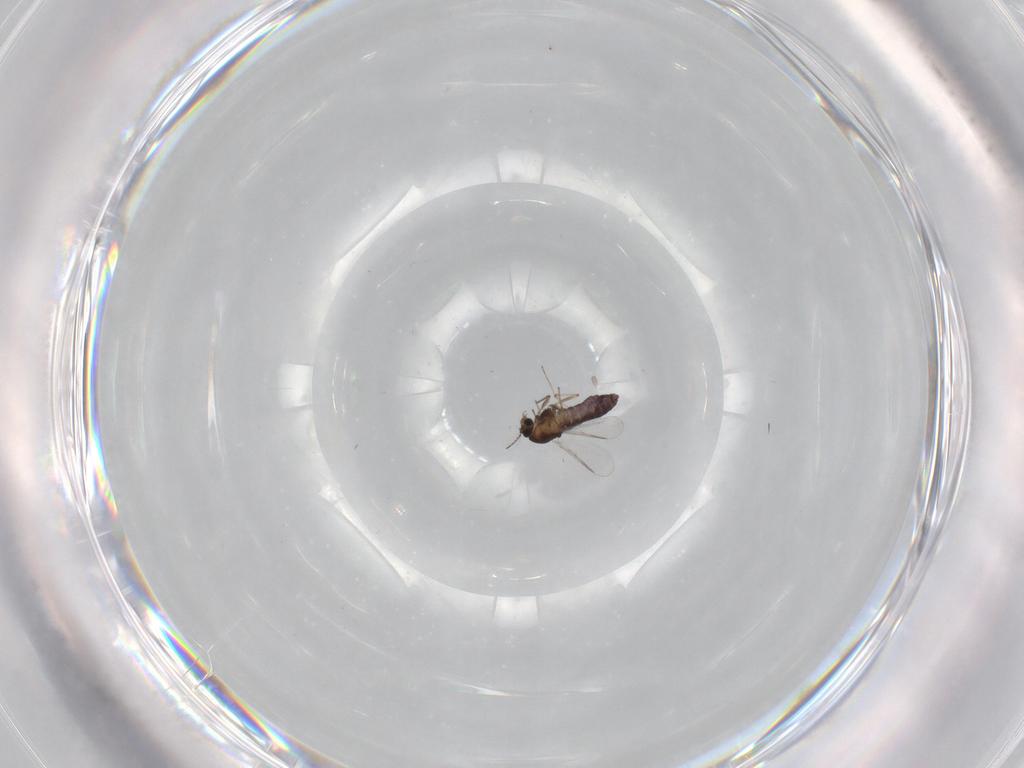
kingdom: Animalia
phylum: Arthropoda
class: Insecta
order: Diptera
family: Chironomidae
